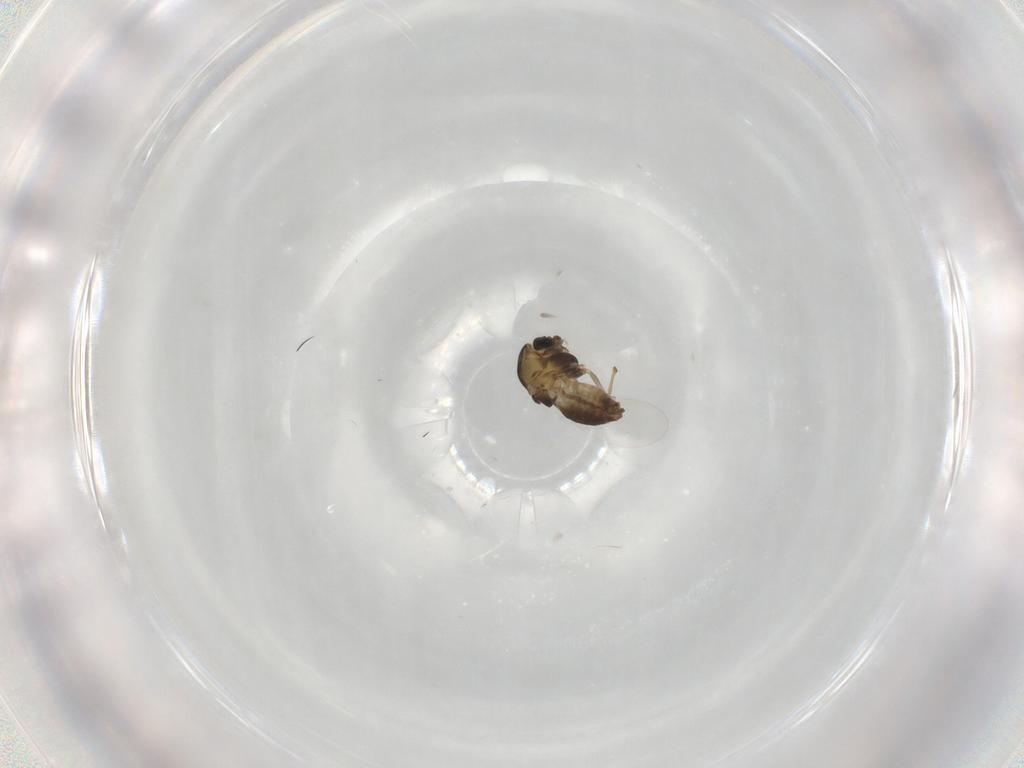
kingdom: Animalia
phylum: Arthropoda
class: Insecta
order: Diptera
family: Chironomidae
